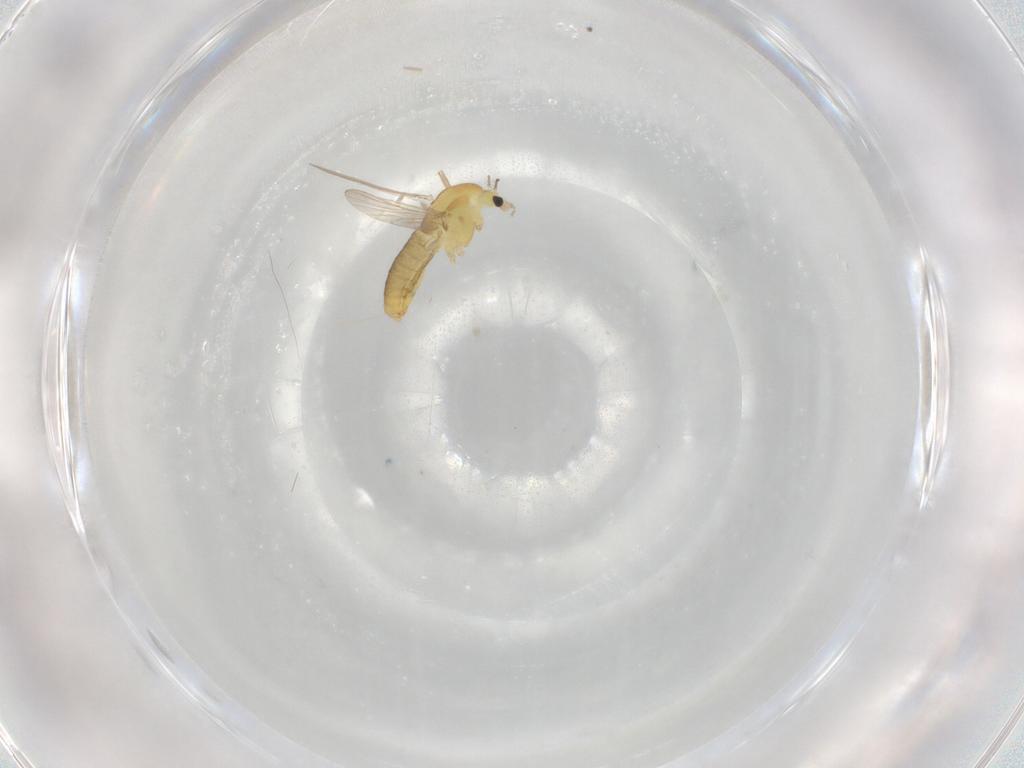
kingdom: Animalia
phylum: Arthropoda
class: Insecta
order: Diptera
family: Chironomidae
